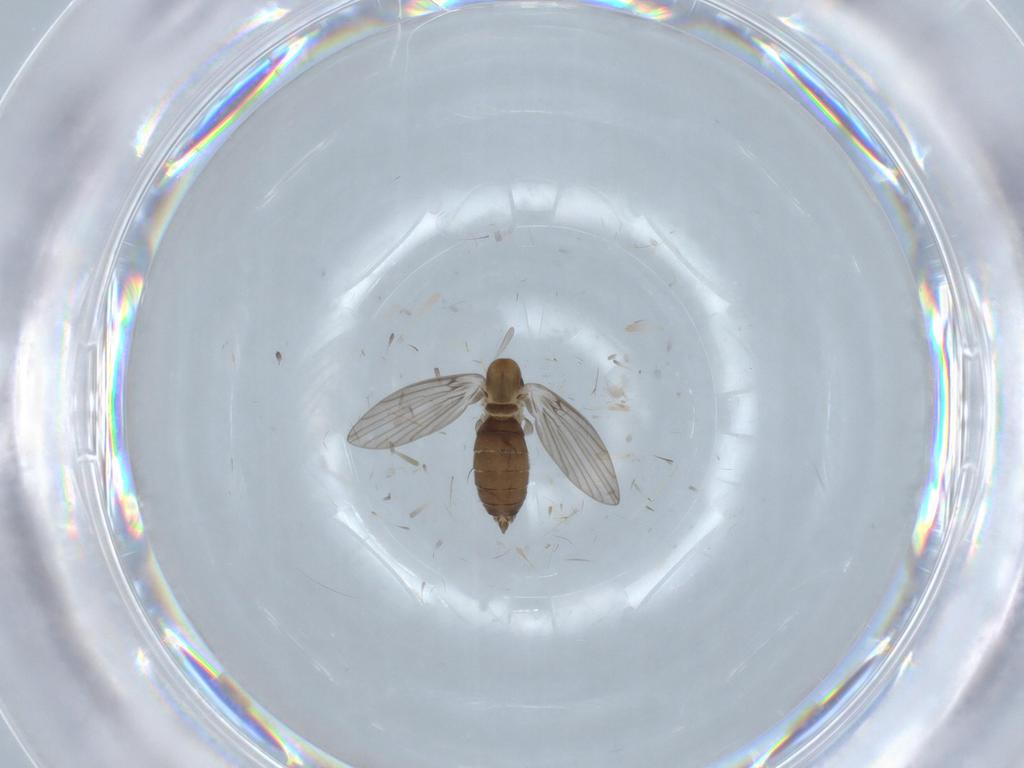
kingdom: Animalia
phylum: Arthropoda
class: Insecta
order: Diptera
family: Psychodidae
